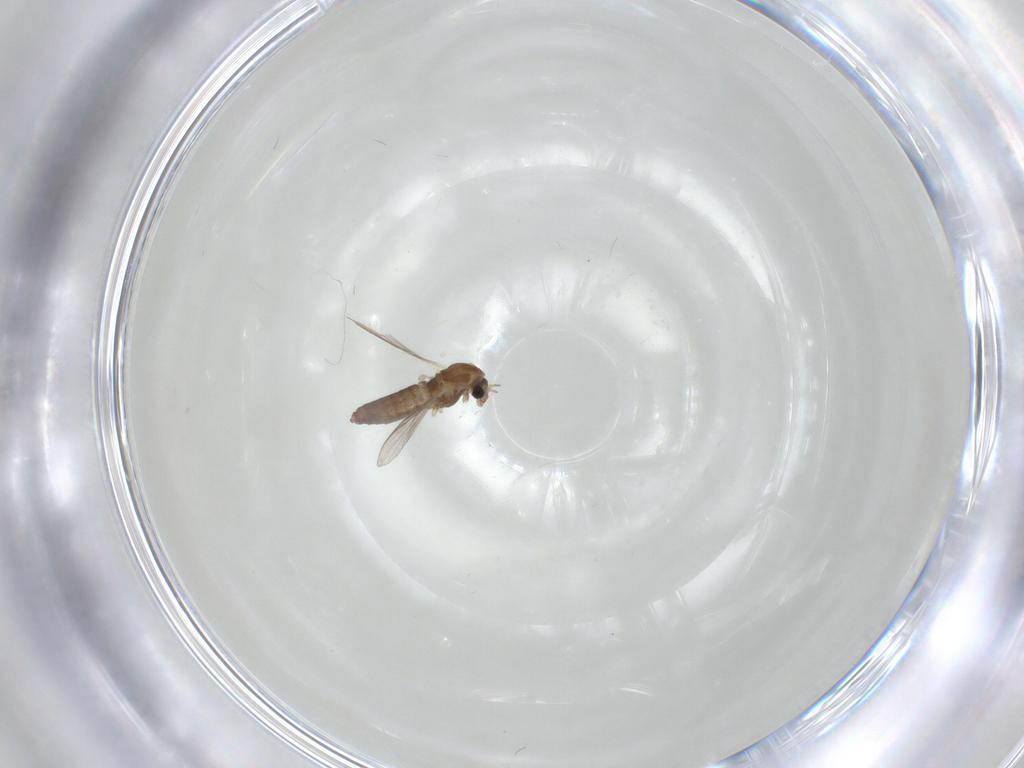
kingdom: Animalia
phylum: Arthropoda
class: Insecta
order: Diptera
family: Chironomidae
